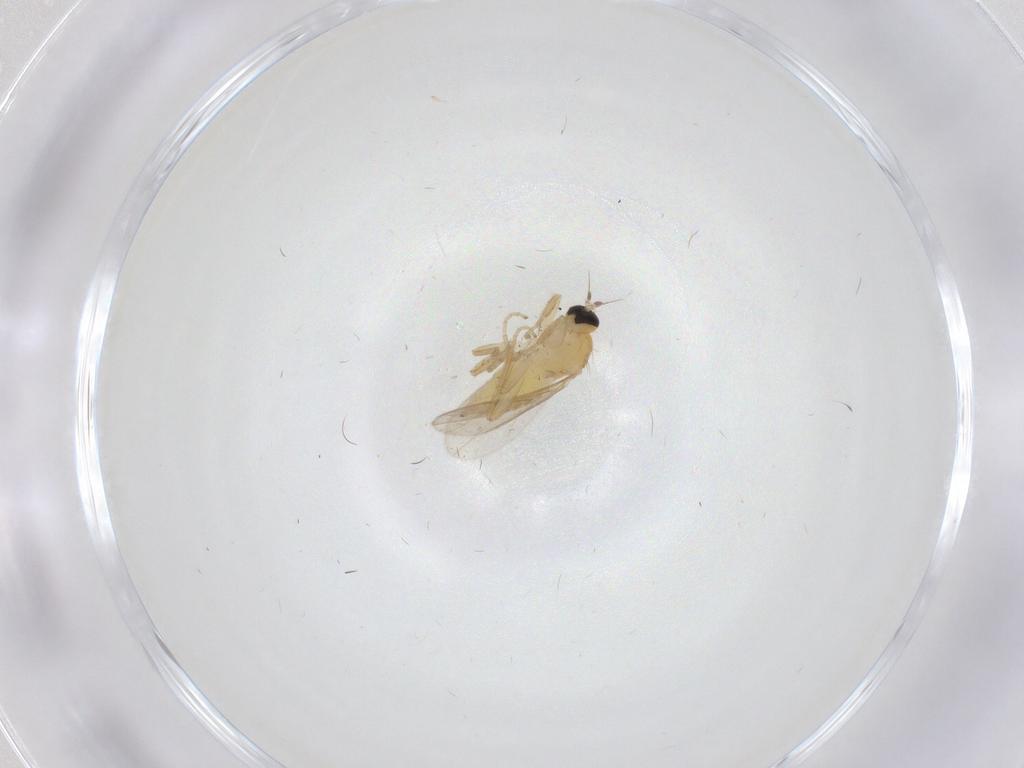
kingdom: Animalia
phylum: Arthropoda
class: Insecta
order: Diptera
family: Hybotidae
